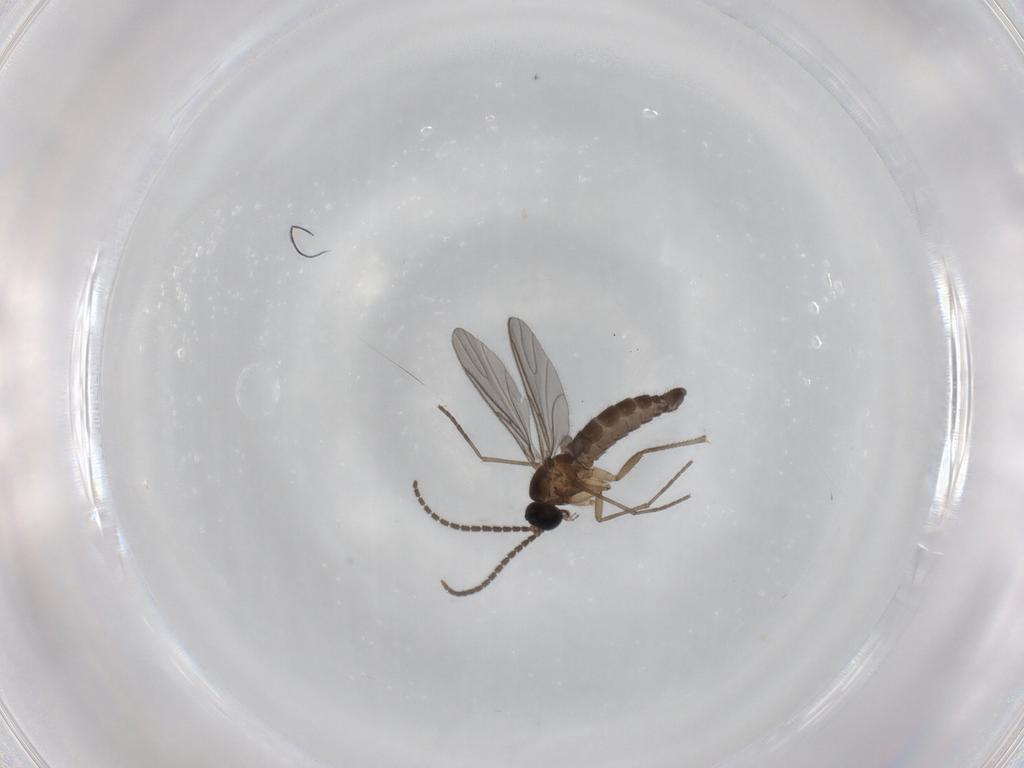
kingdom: Animalia
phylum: Arthropoda
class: Insecta
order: Diptera
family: Sciaridae
